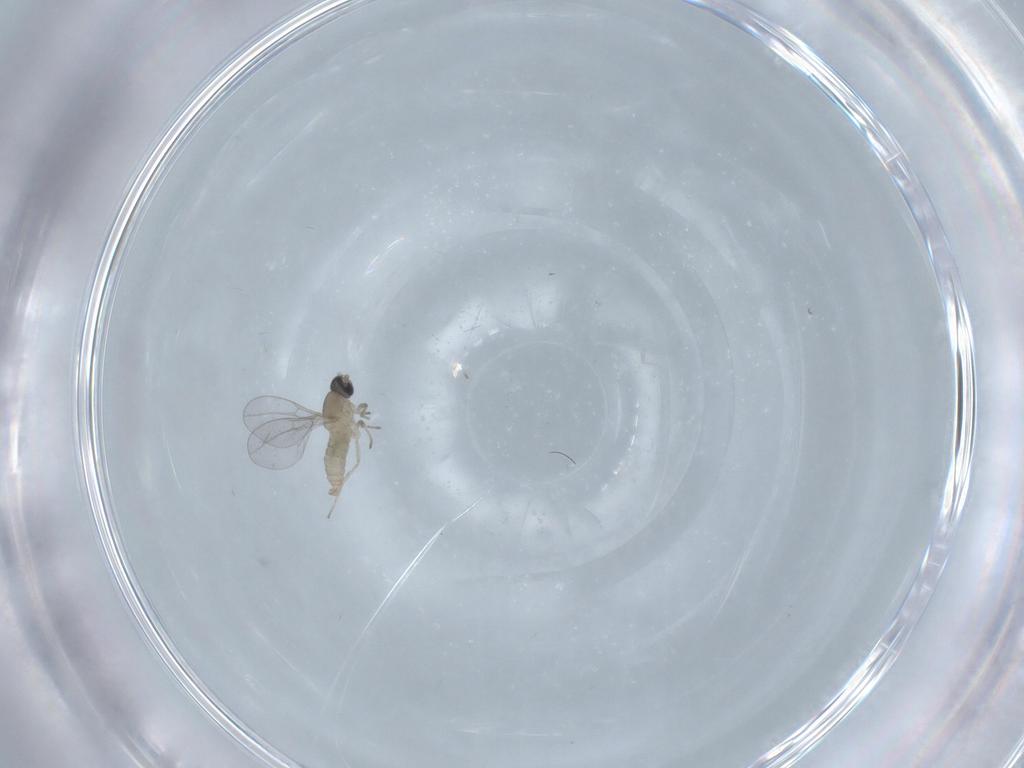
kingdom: Animalia
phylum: Arthropoda
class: Insecta
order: Diptera
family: Cecidomyiidae
